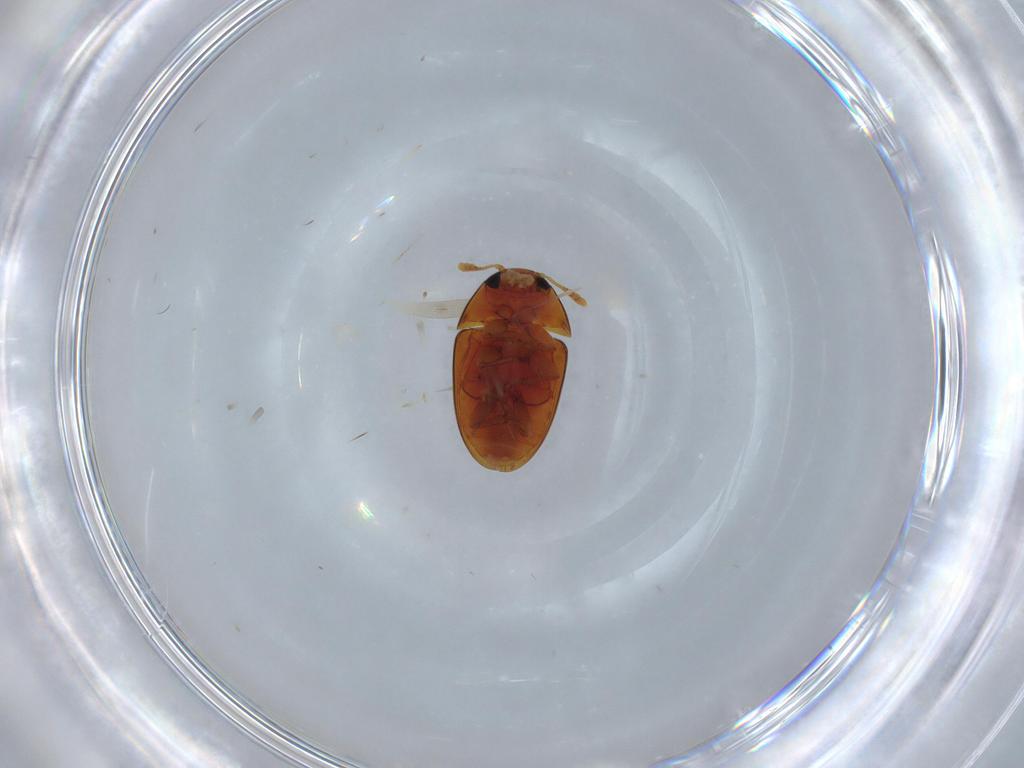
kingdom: Animalia
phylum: Arthropoda
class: Insecta
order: Coleoptera
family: Phalacridae
